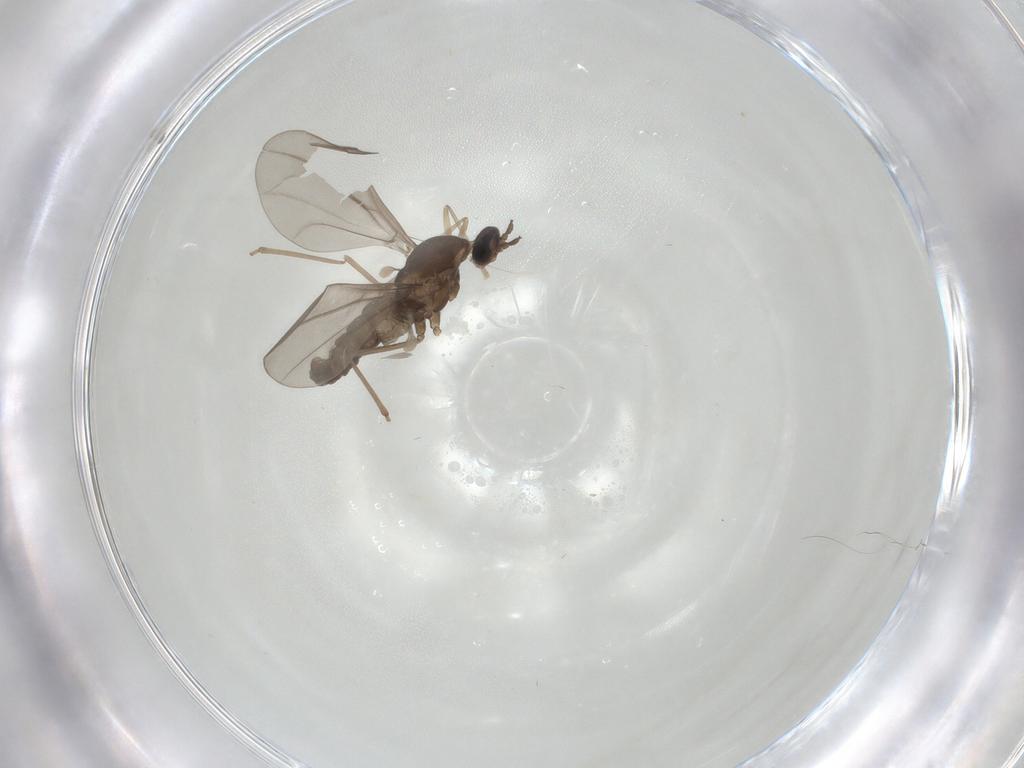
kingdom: Animalia
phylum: Arthropoda
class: Insecta
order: Diptera
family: Cecidomyiidae
